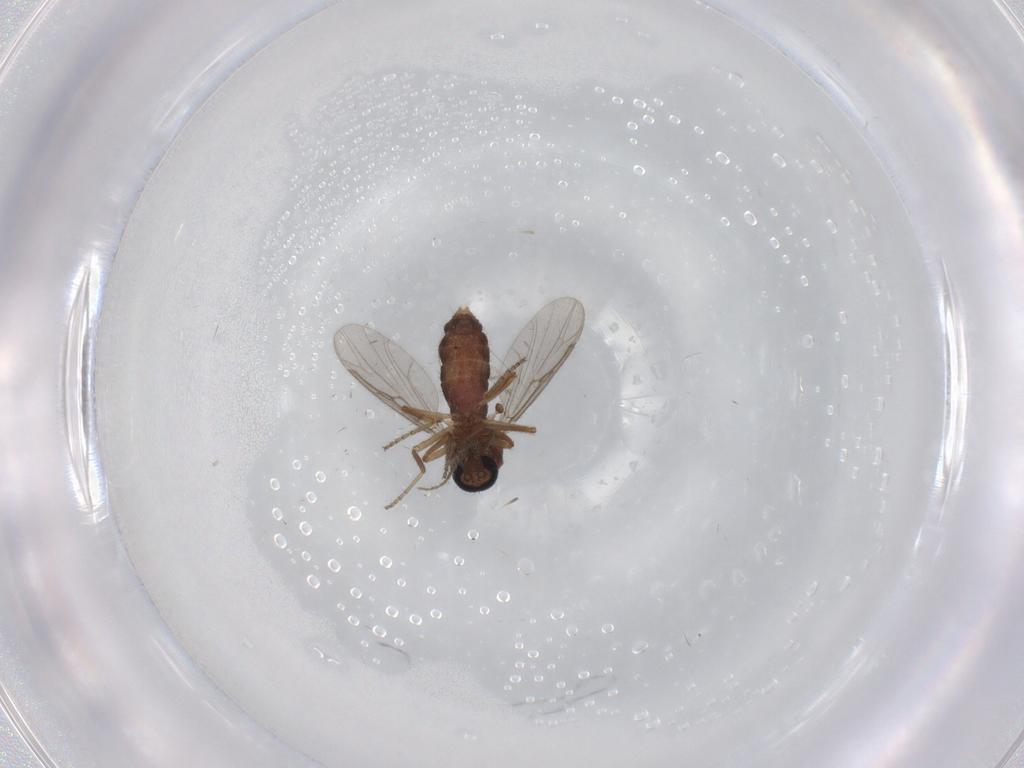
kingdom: Animalia
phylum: Arthropoda
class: Insecta
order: Diptera
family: Ceratopogonidae
